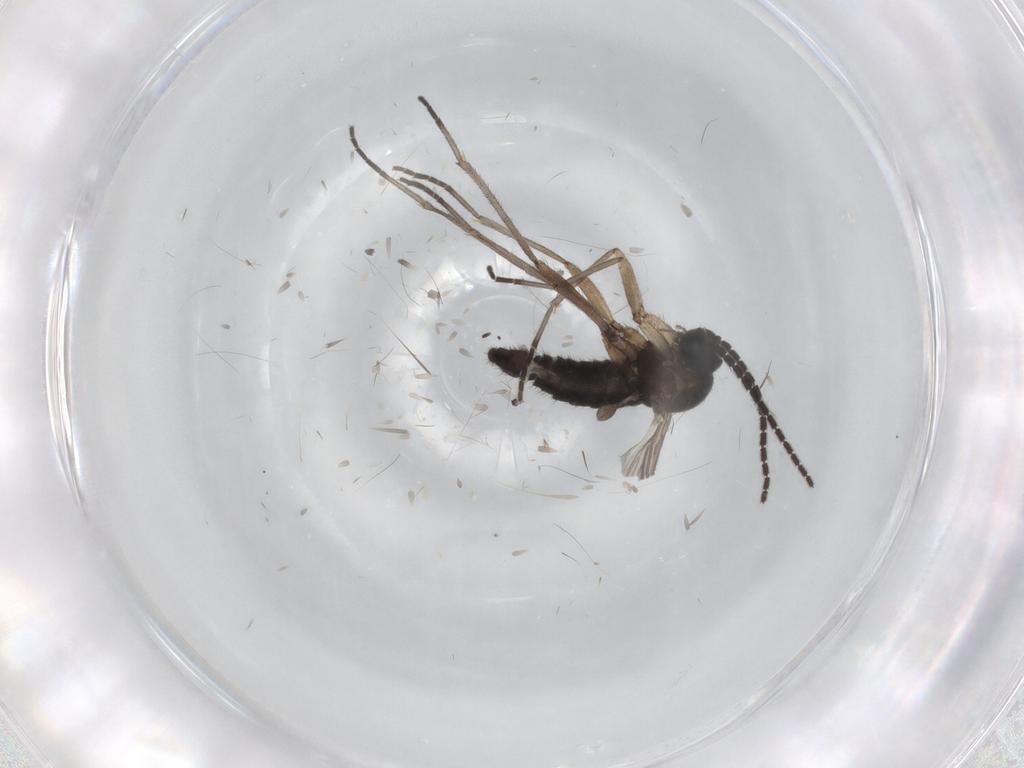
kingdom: Animalia
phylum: Arthropoda
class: Insecta
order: Diptera
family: Sciaridae
